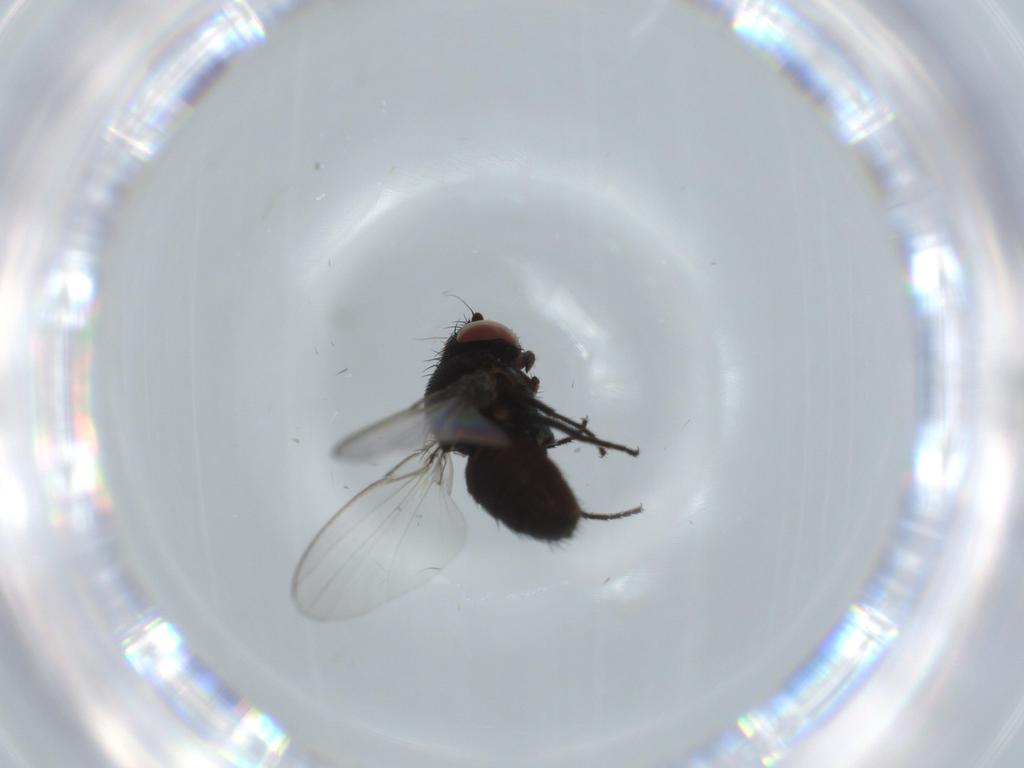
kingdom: Animalia
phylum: Arthropoda
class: Insecta
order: Diptera
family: Milichiidae
